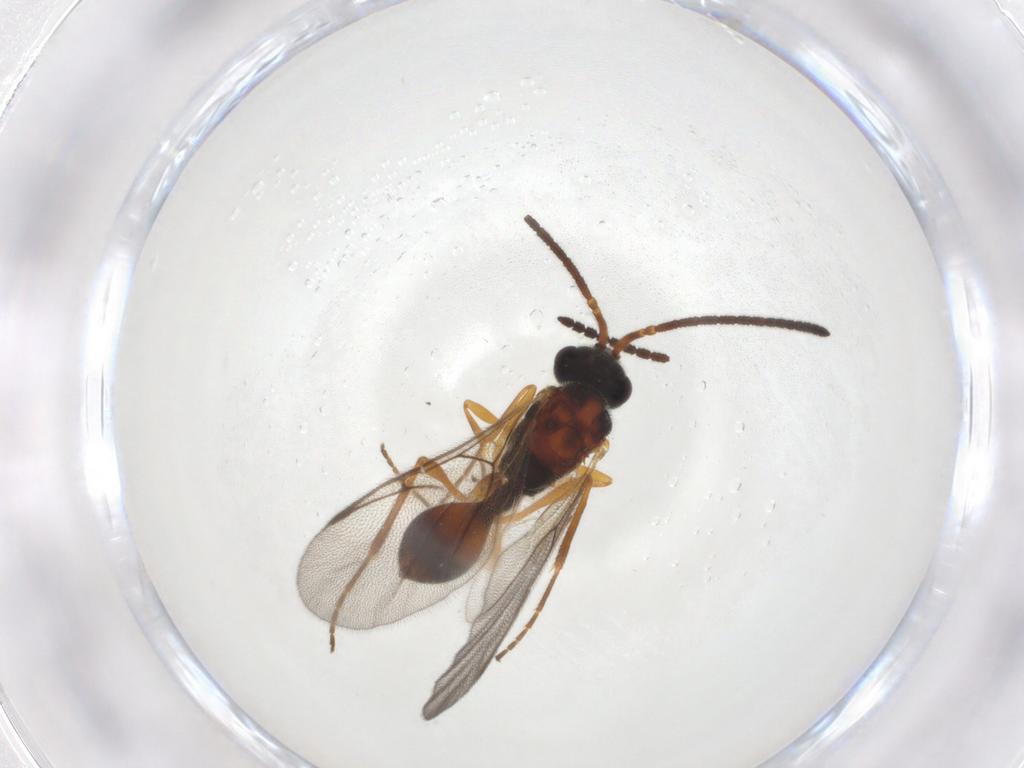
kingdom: Animalia
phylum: Arthropoda
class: Insecta
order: Hymenoptera
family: Diapriidae
